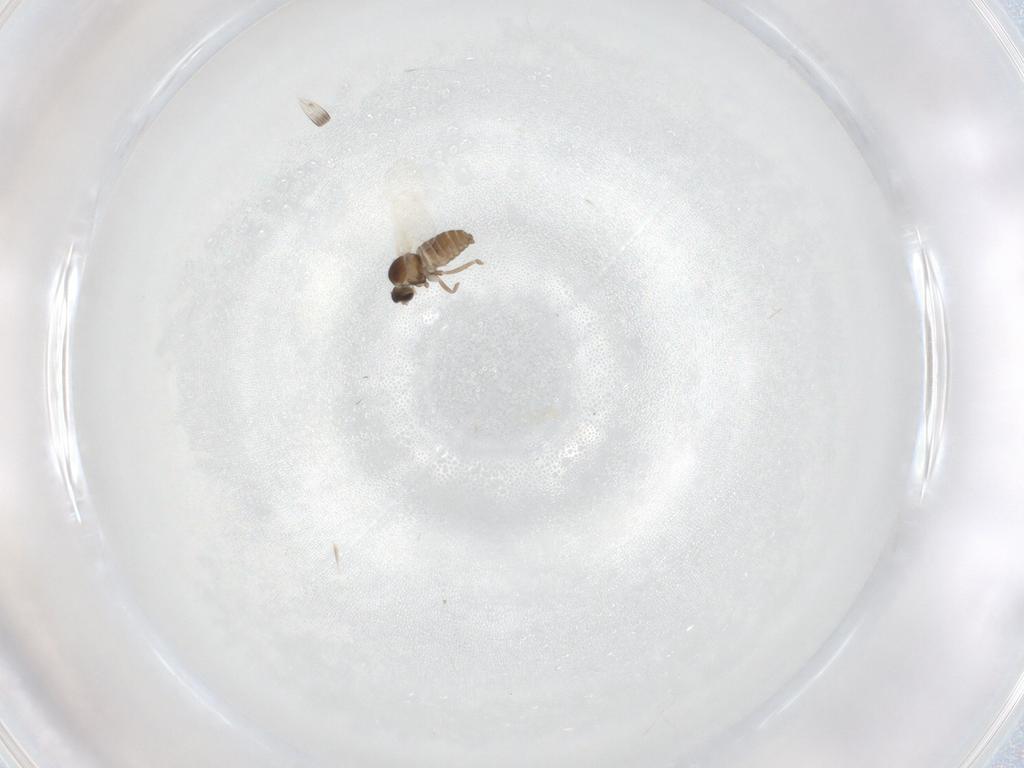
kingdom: Animalia
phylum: Arthropoda
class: Insecta
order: Diptera
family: Cecidomyiidae
